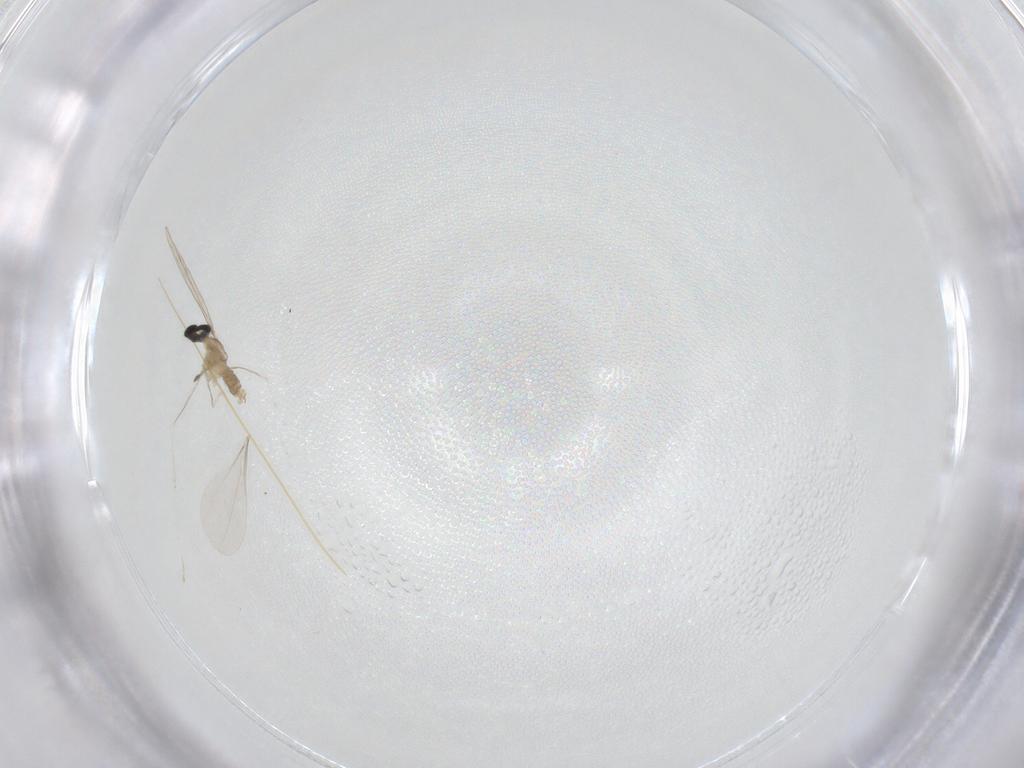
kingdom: Animalia
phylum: Arthropoda
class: Insecta
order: Diptera
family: Cecidomyiidae
